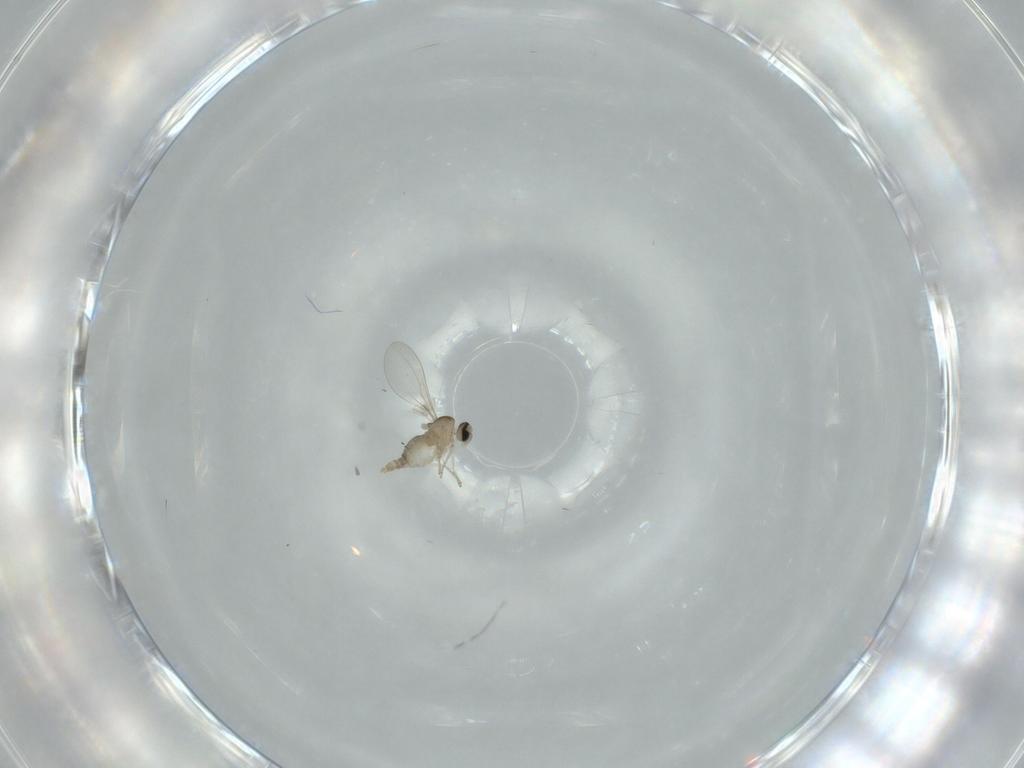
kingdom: Animalia
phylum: Arthropoda
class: Insecta
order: Diptera
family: Cecidomyiidae
